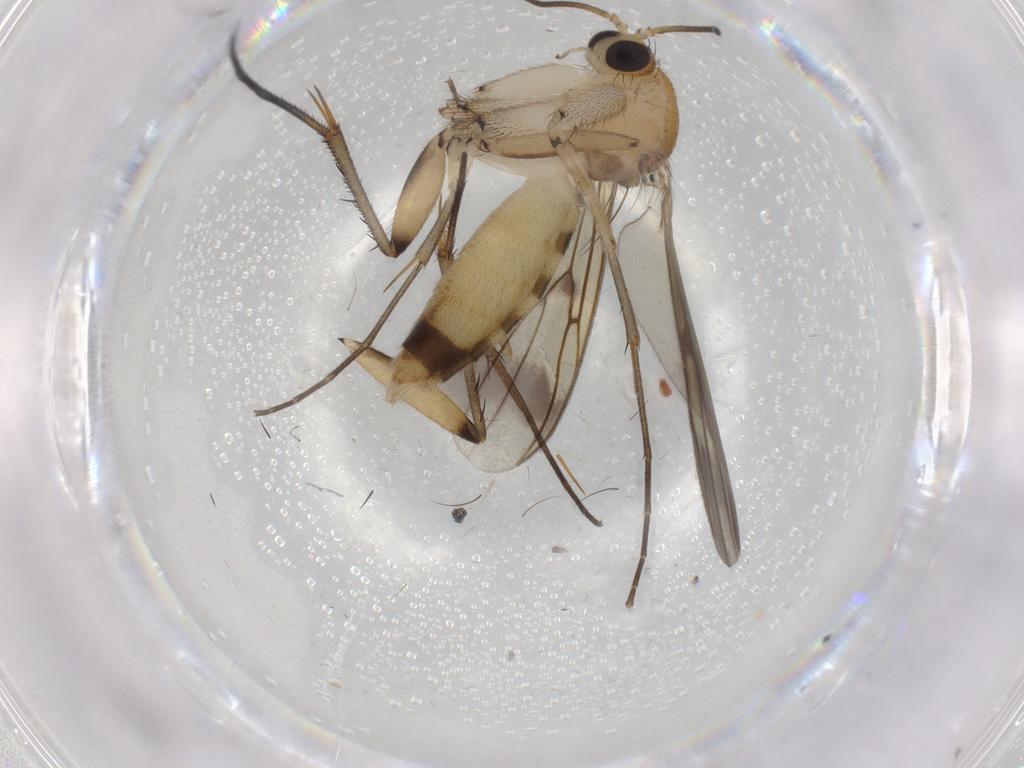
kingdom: Animalia
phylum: Arthropoda
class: Insecta
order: Diptera
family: Mycetophilidae
